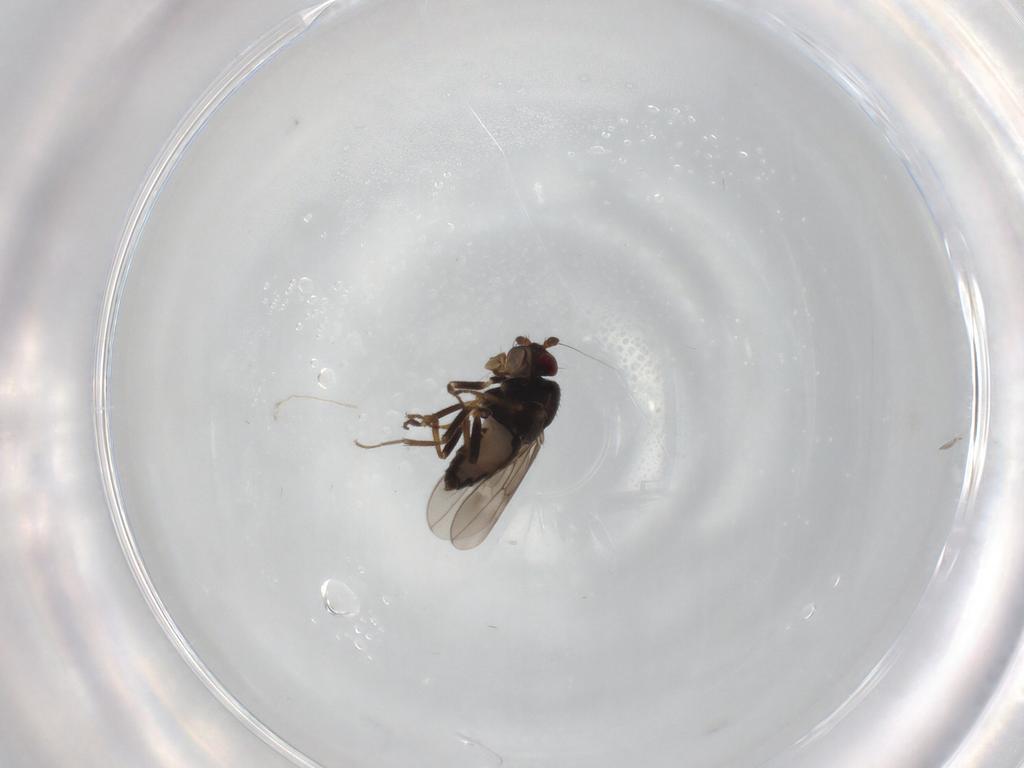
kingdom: Animalia
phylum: Arthropoda
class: Insecta
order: Diptera
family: Sphaeroceridae
